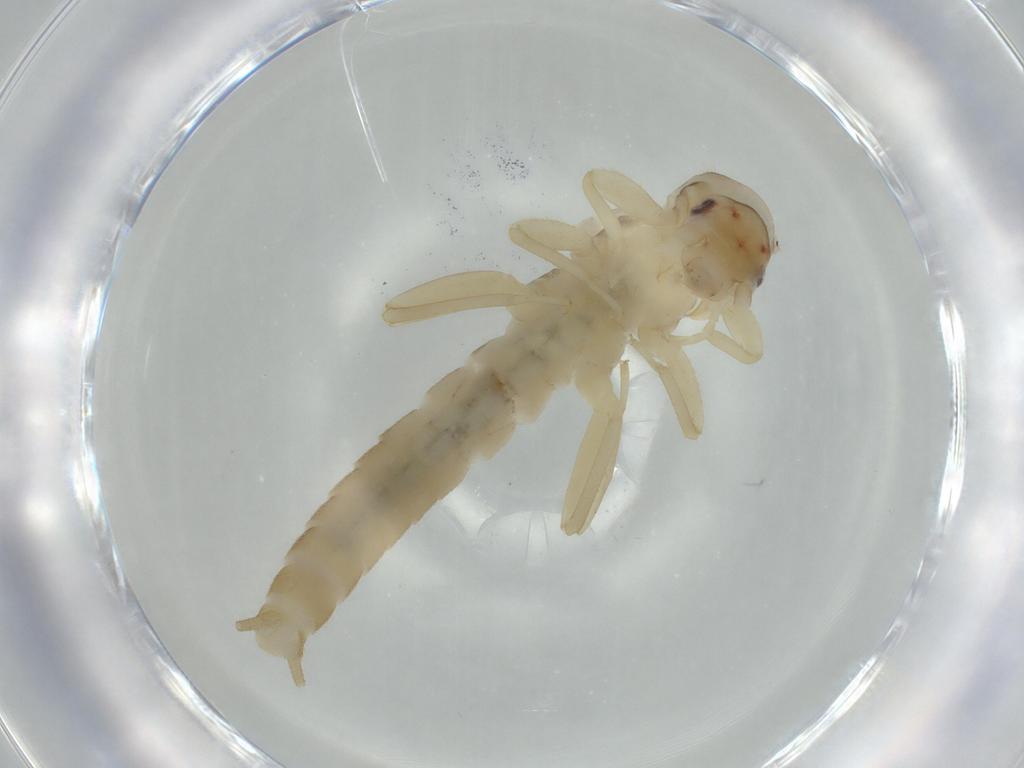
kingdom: Animalia
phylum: Arthropoda
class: Insecta
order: Plecoptera
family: Leuctridae
